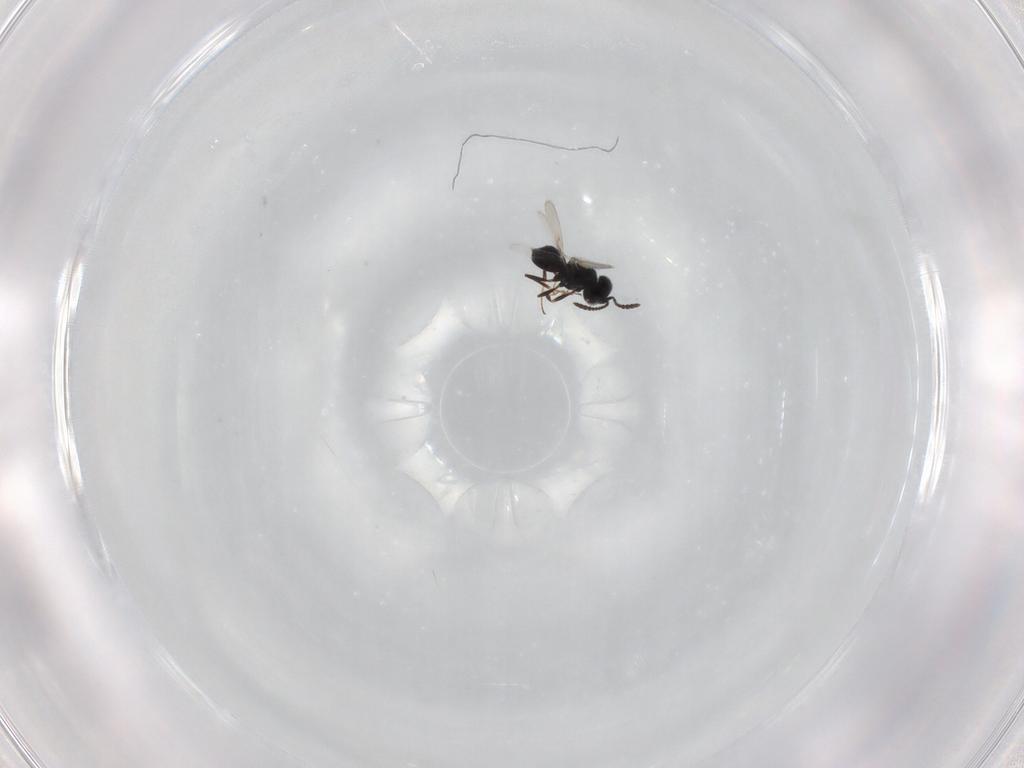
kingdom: Animalia
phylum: Arthropoda
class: Insecta
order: Hymenoptera
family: Scelionidae
